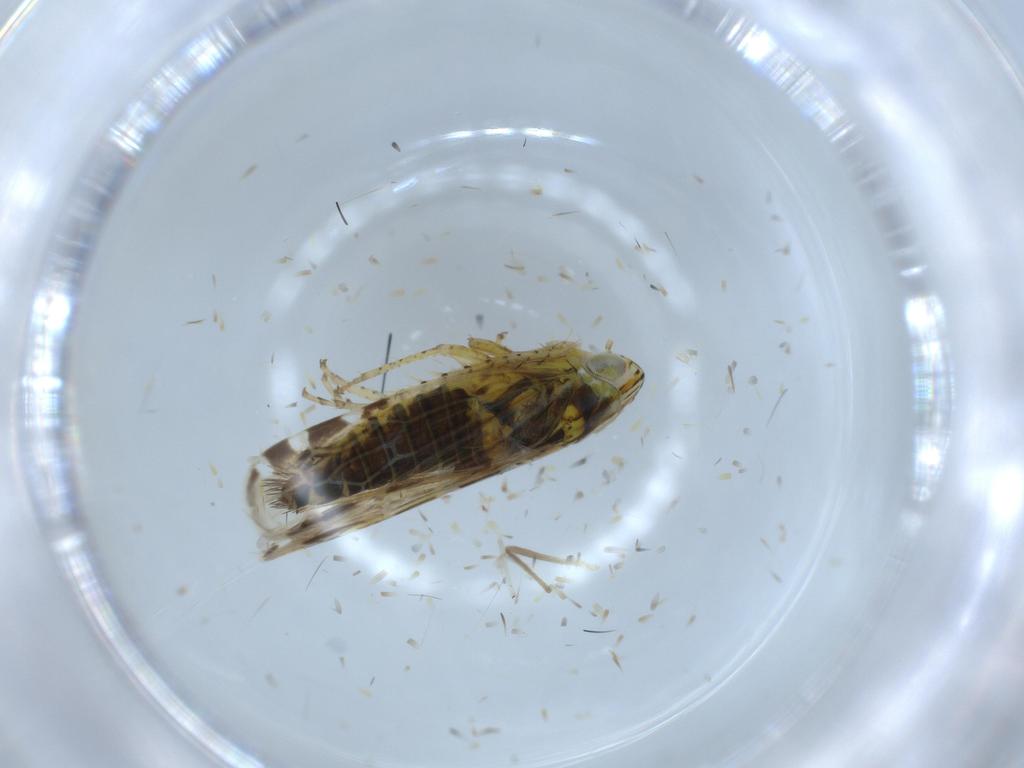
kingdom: Animalia
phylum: Arthropoda
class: Insecta
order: Hemiptera
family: Cicadellidae
